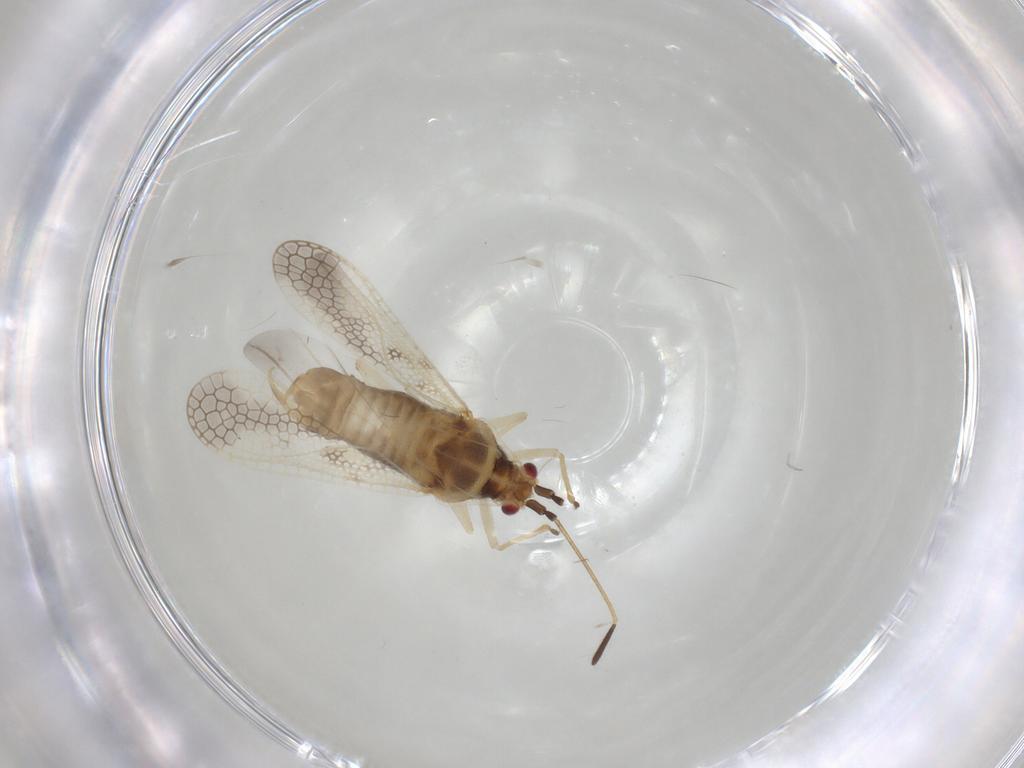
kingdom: Animalia
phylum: Arthropoda
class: Insecta
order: Hemiptera
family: Tingidae
